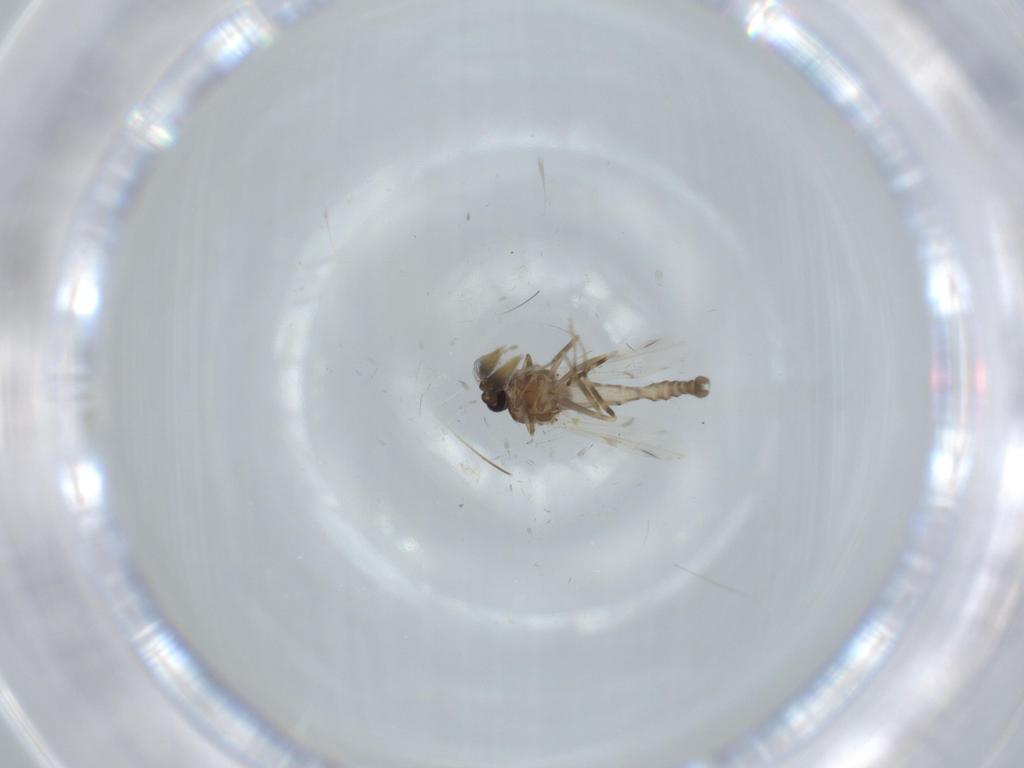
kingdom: Animalia
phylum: Arthropoda
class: Insecta
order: Diptera
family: Ceratopogonidae
